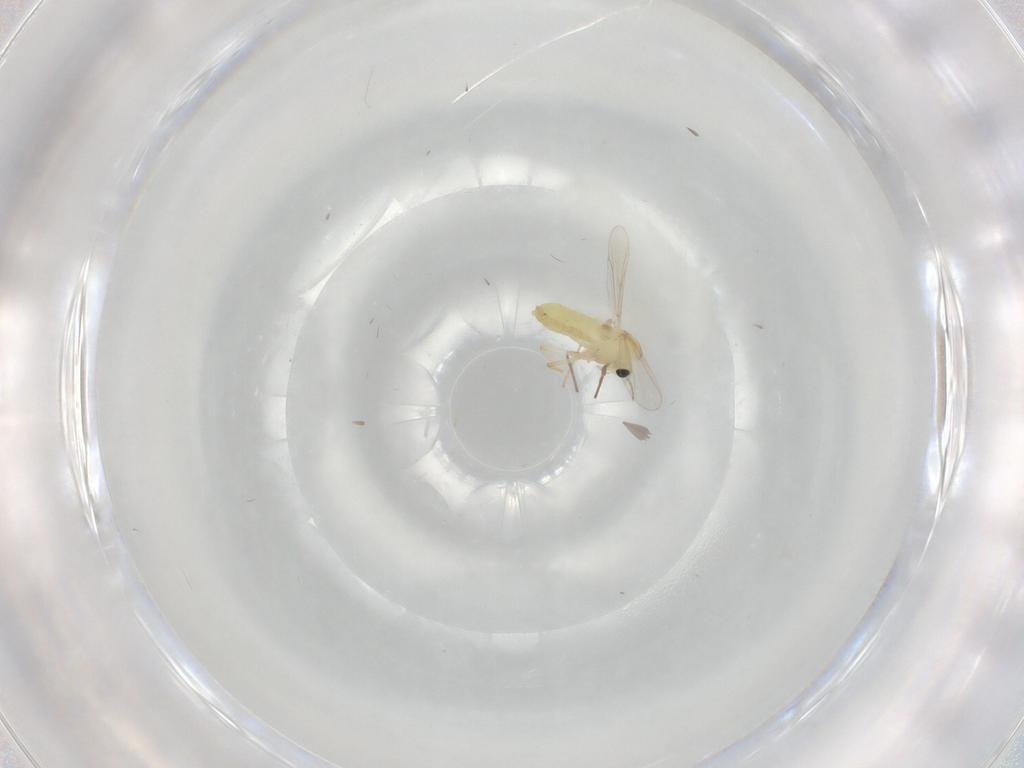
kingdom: Animalia
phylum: Arthropoda
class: Insecta
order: Diptera
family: Chironomidae
